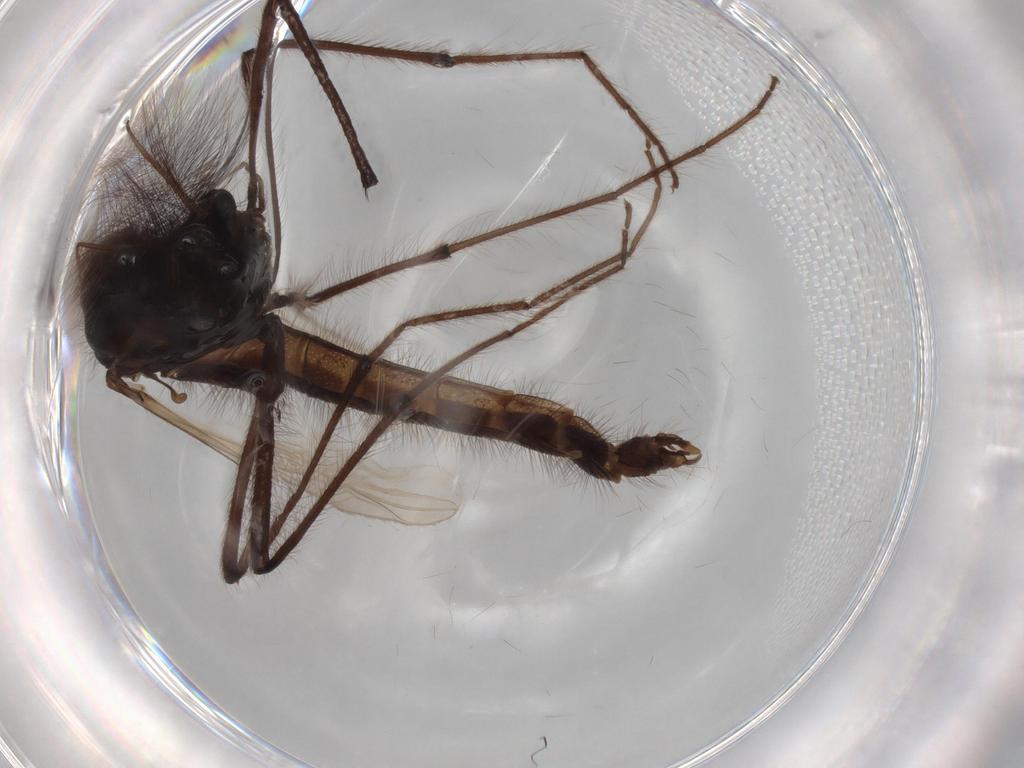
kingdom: Animalia
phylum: Arthropoda
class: Insecta
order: Diptera
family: Chironomidae
